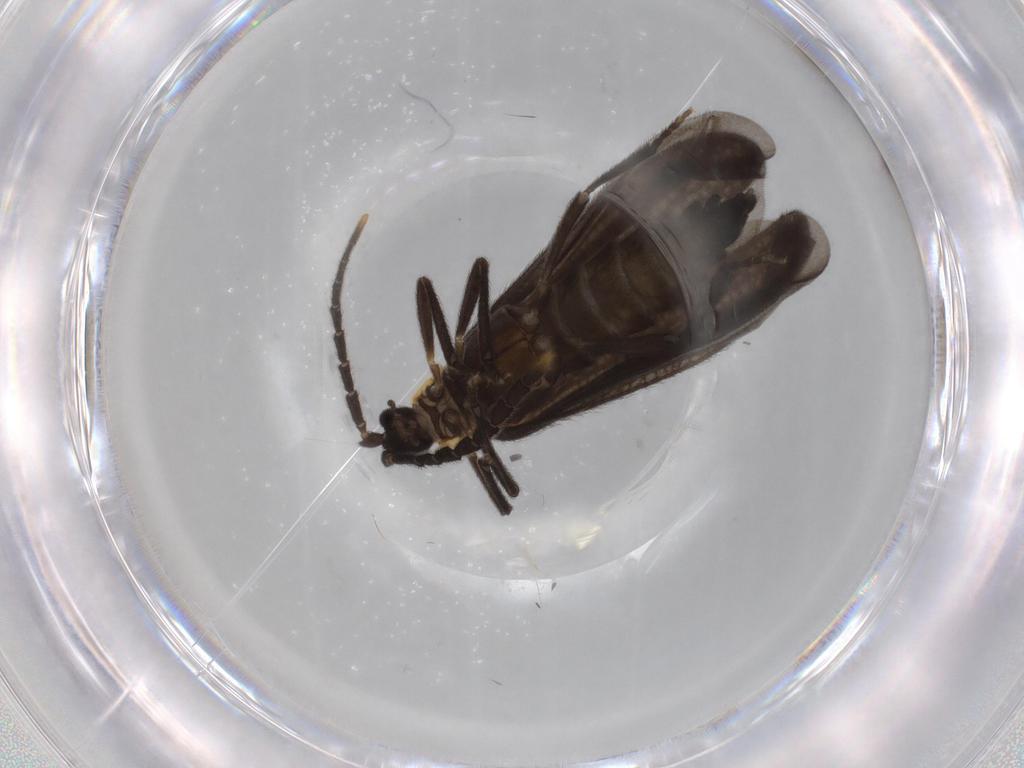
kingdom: Animalia
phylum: Arthropoda
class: Insecta
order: Coleoptera
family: Lycidae
